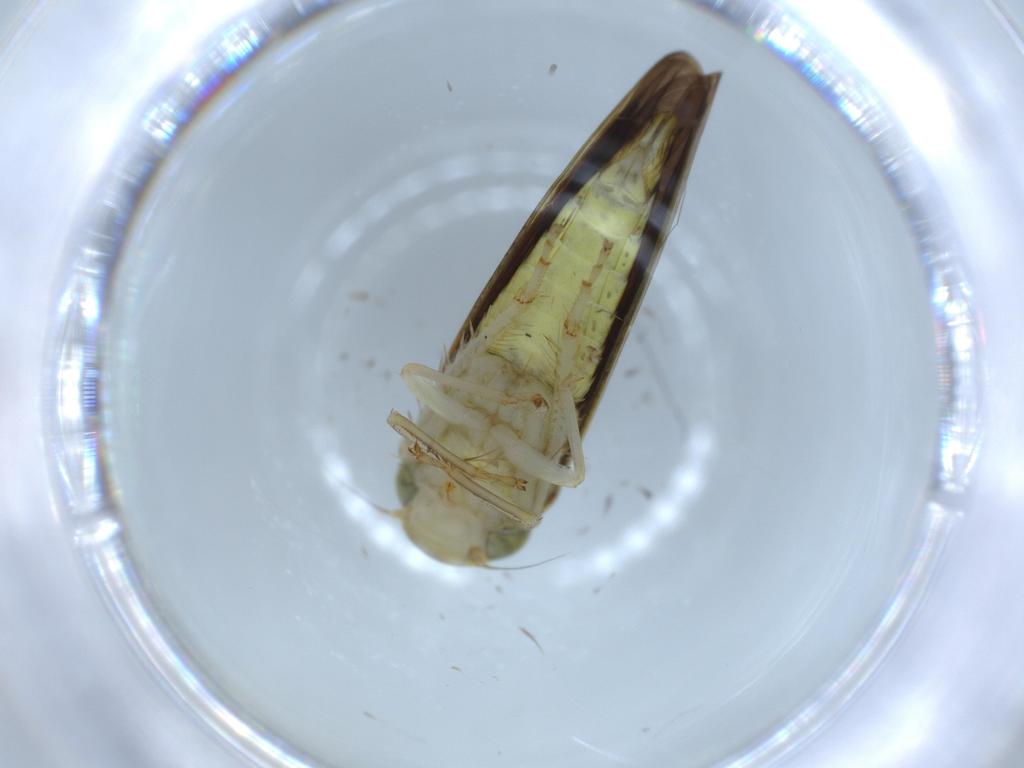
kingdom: Animalia
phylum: Arthropoda
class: Insecta
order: Hemiptera
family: Cicadellidae
